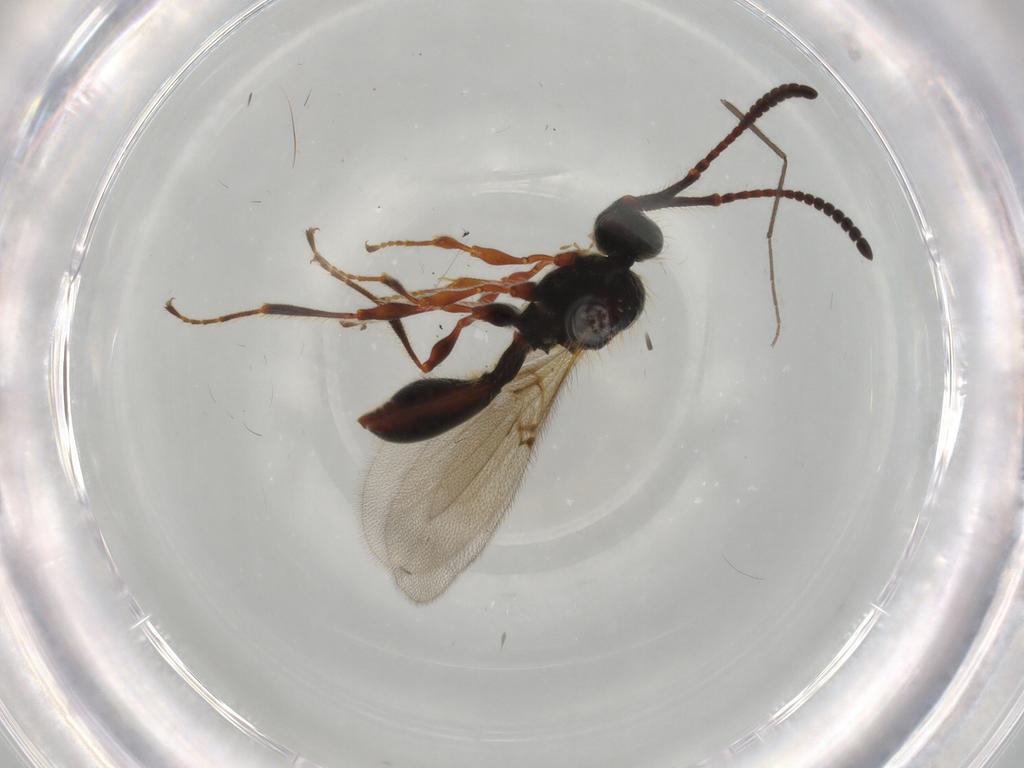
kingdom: Animalia
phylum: Arthropoda
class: Insecta
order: Hymenoptera
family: Diapriidae
